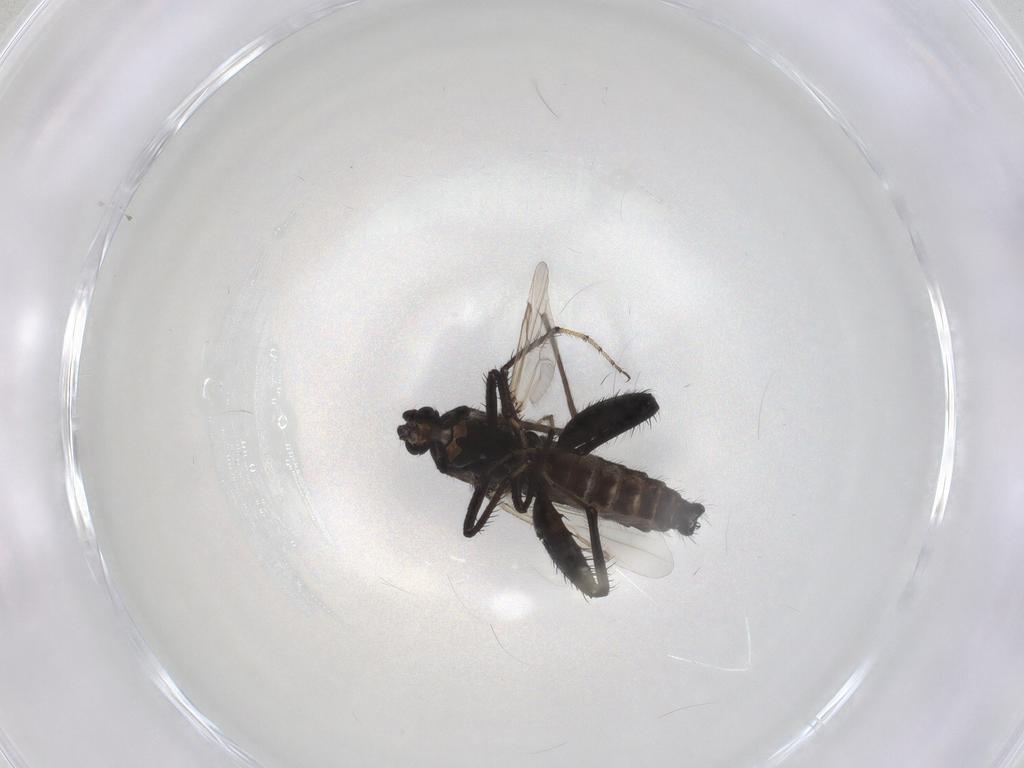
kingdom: Animalia
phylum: Arthropoda
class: Insecta
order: Diptera
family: Ceratopogonidae
